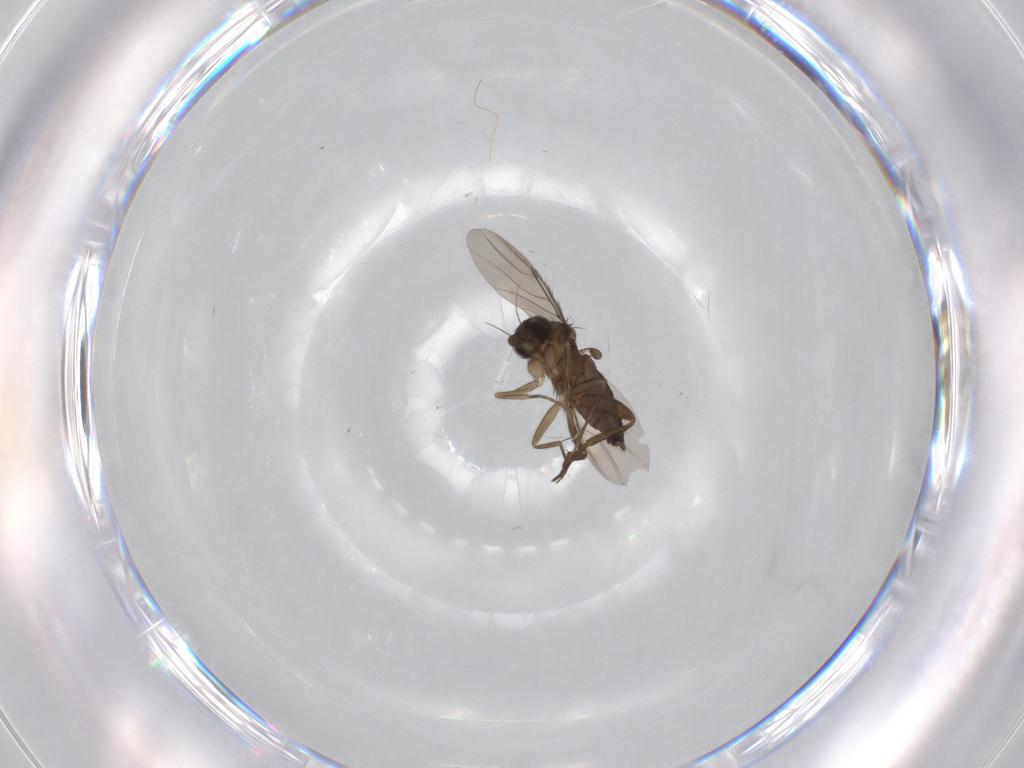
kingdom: Animalia
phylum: Arthropoda
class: Insecta
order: Diptera
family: Phoridae
